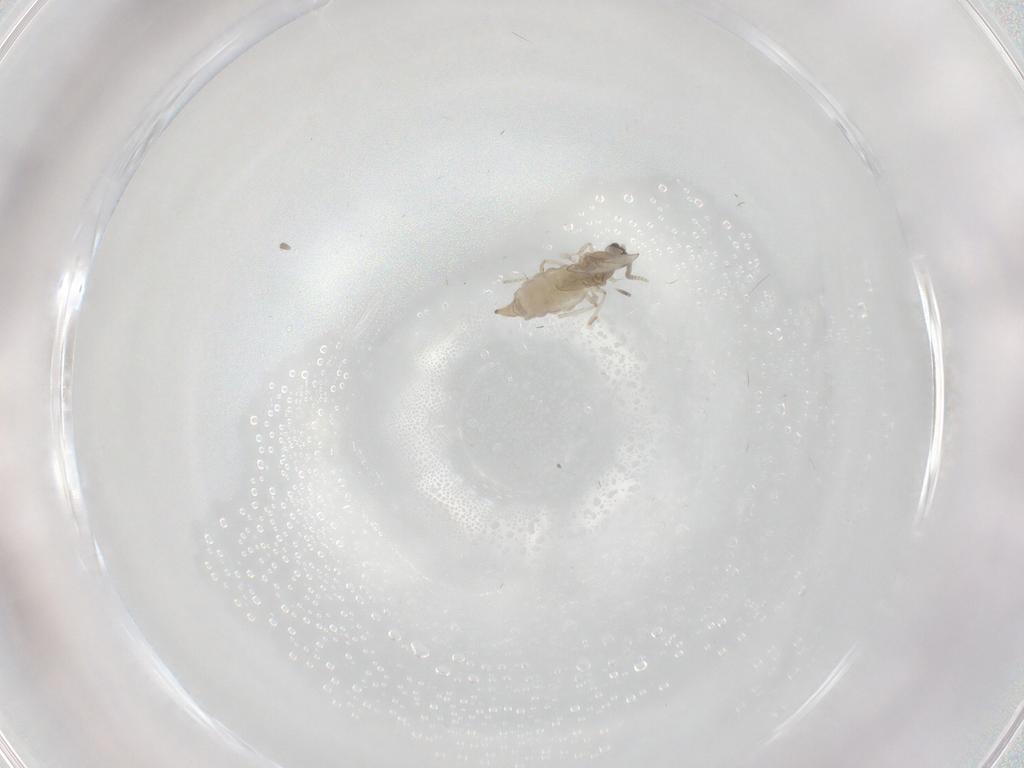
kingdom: Animalia
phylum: Arthropoda
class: Insecta
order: Diptera
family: Cecidomyiidae
